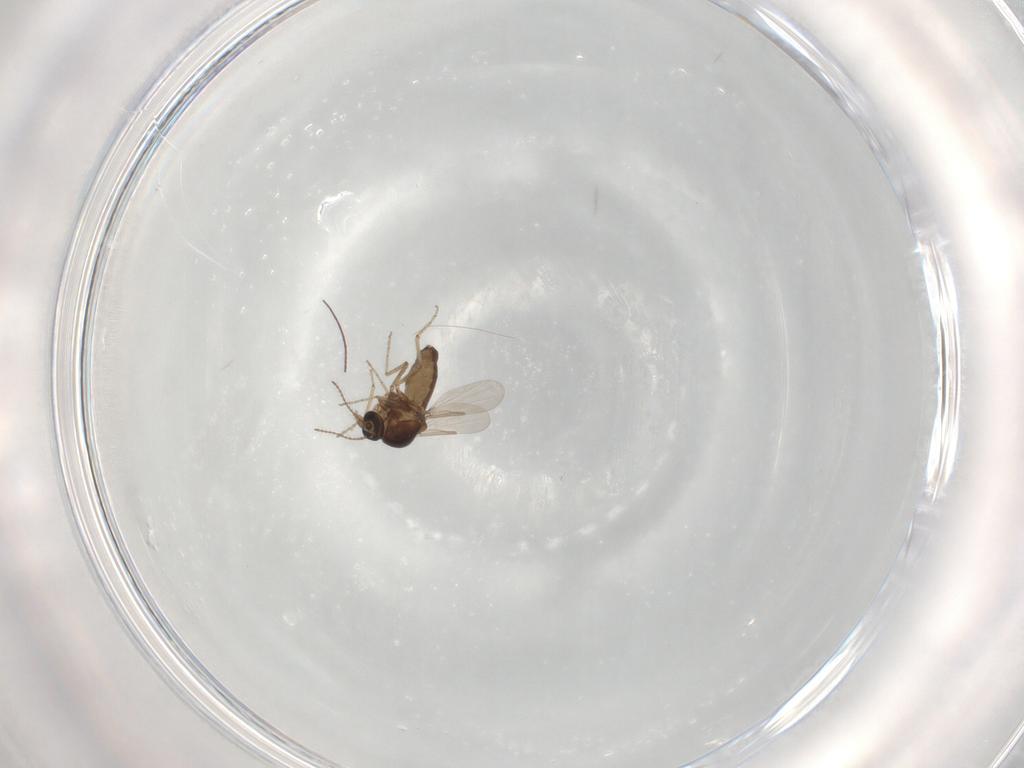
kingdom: Animalia
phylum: Arthropoda
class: Insecta
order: Diptera
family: Ceratopogonidae
